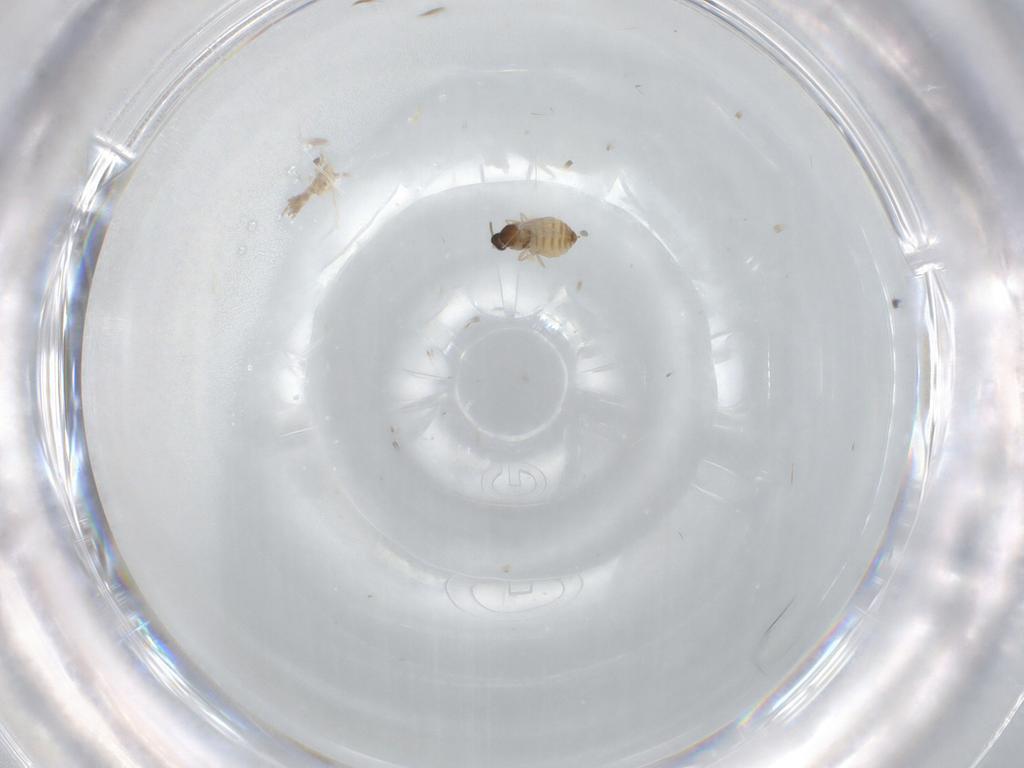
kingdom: Animalia
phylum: Arthropoda
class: Insecta
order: Diptera
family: Cecidomyiidae
